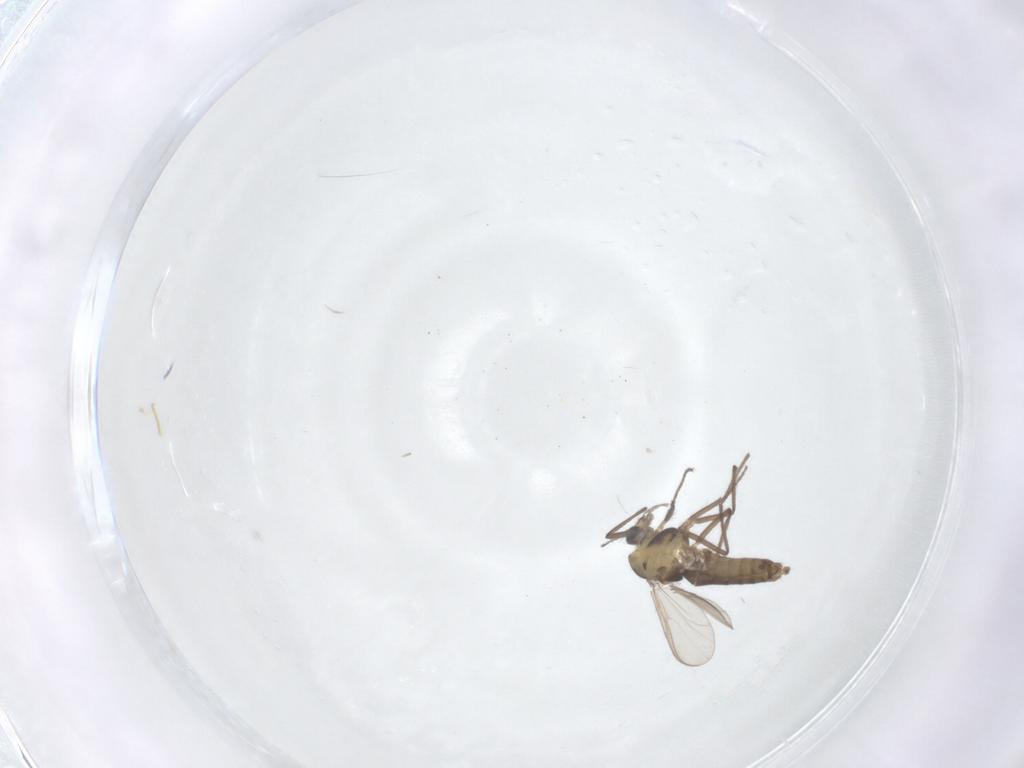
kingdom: Animalia
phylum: Arthropoda
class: Insecta
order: Diptera
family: Chironomidae
